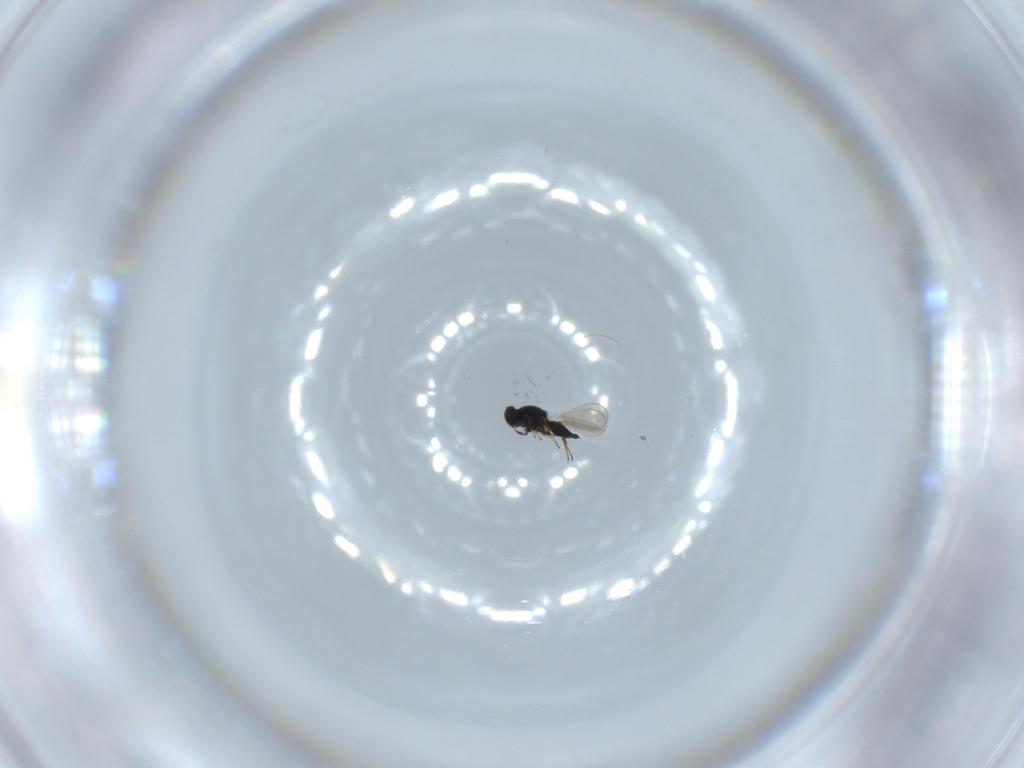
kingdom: Animalia
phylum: Arthropoda
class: Insecta
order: Hymenoptera
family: Platygastridae
